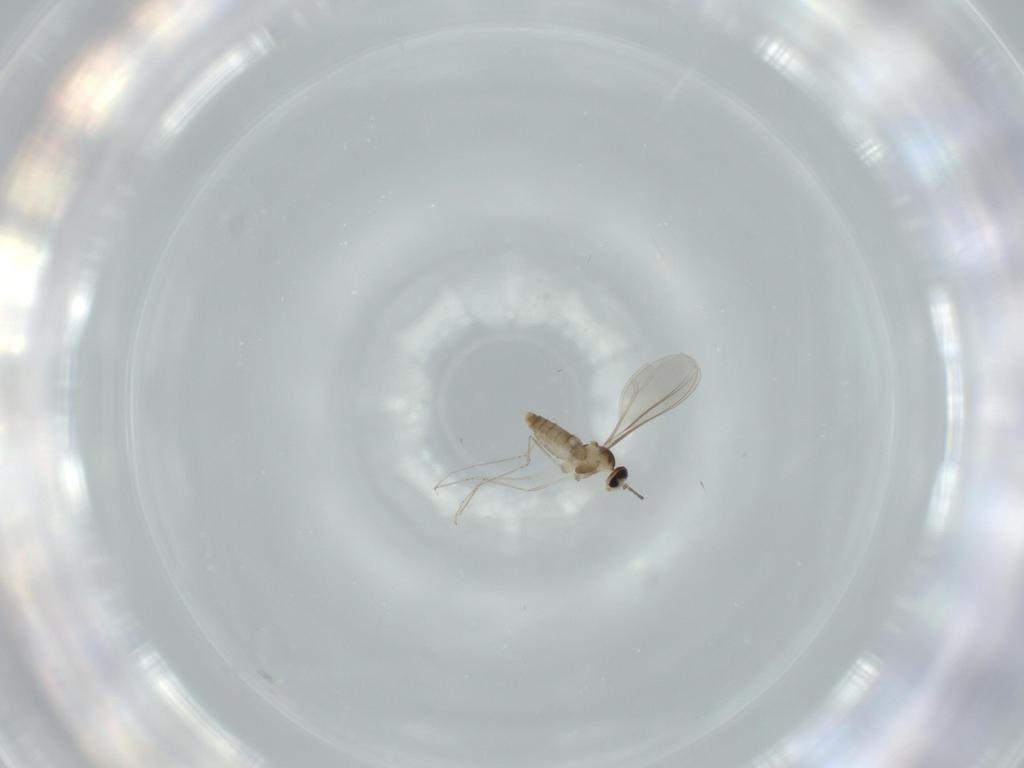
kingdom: Animalia
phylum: Arthropoda
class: Insecta
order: Diptera
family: Cecidomyiidae
